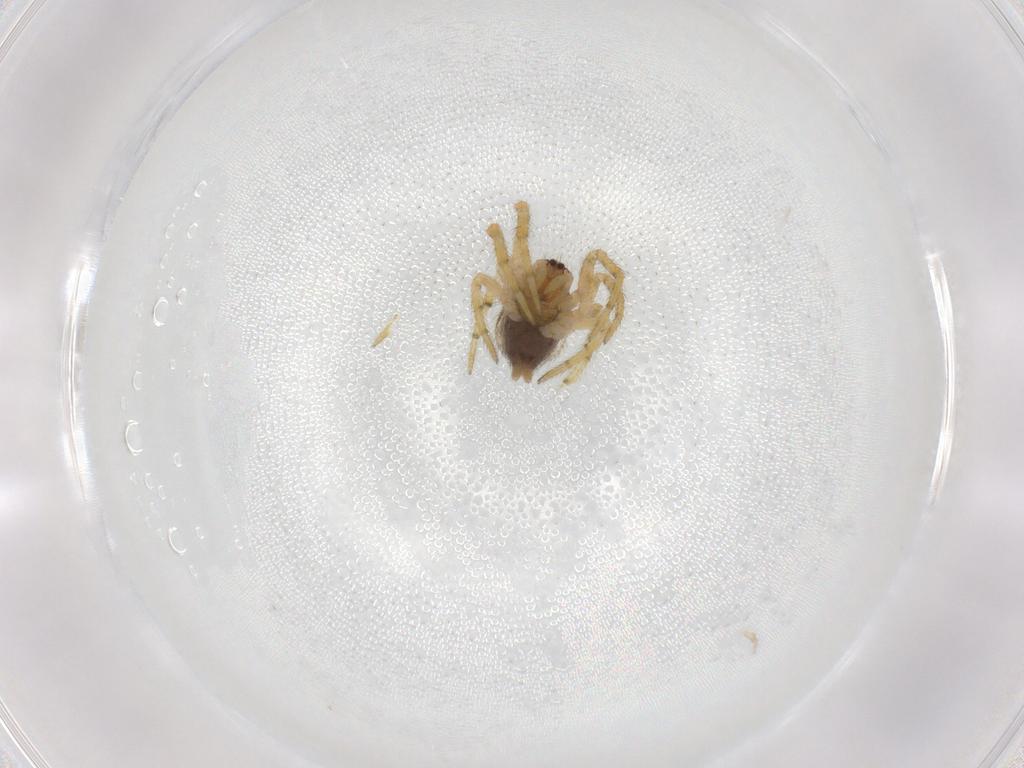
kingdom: Animalia
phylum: Arthropoda
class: Arachnida
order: Araneae
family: Theridiidae
